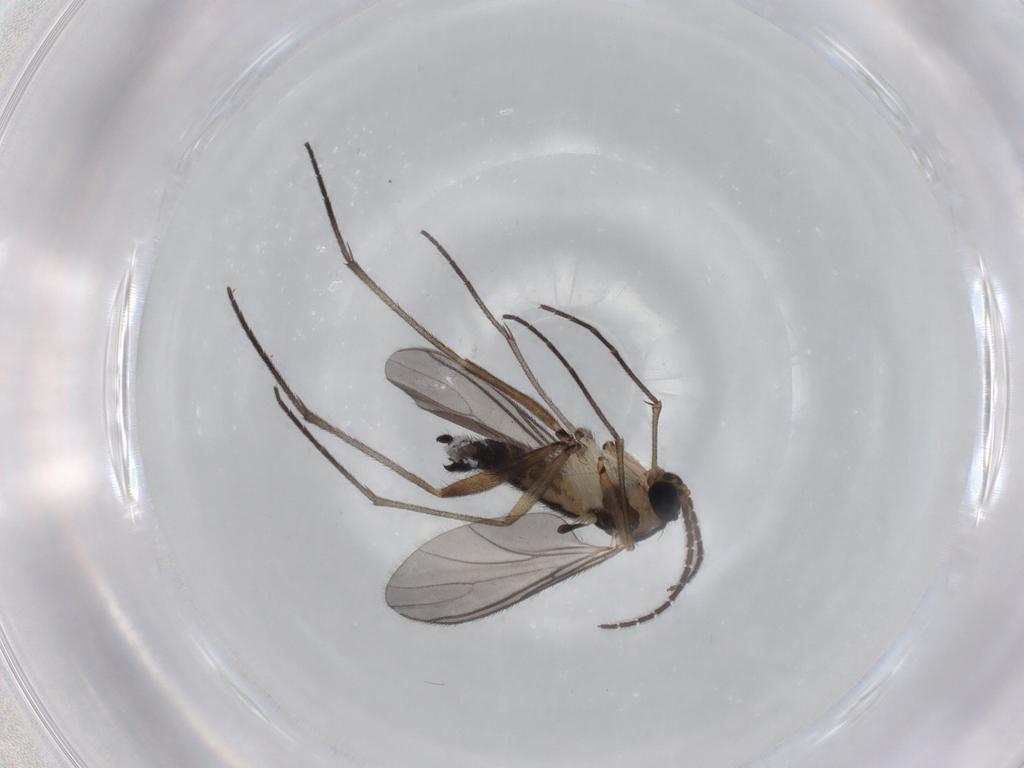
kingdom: Animalia
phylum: Arthropoda
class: Insecta
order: Diptera
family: Sciaridae
